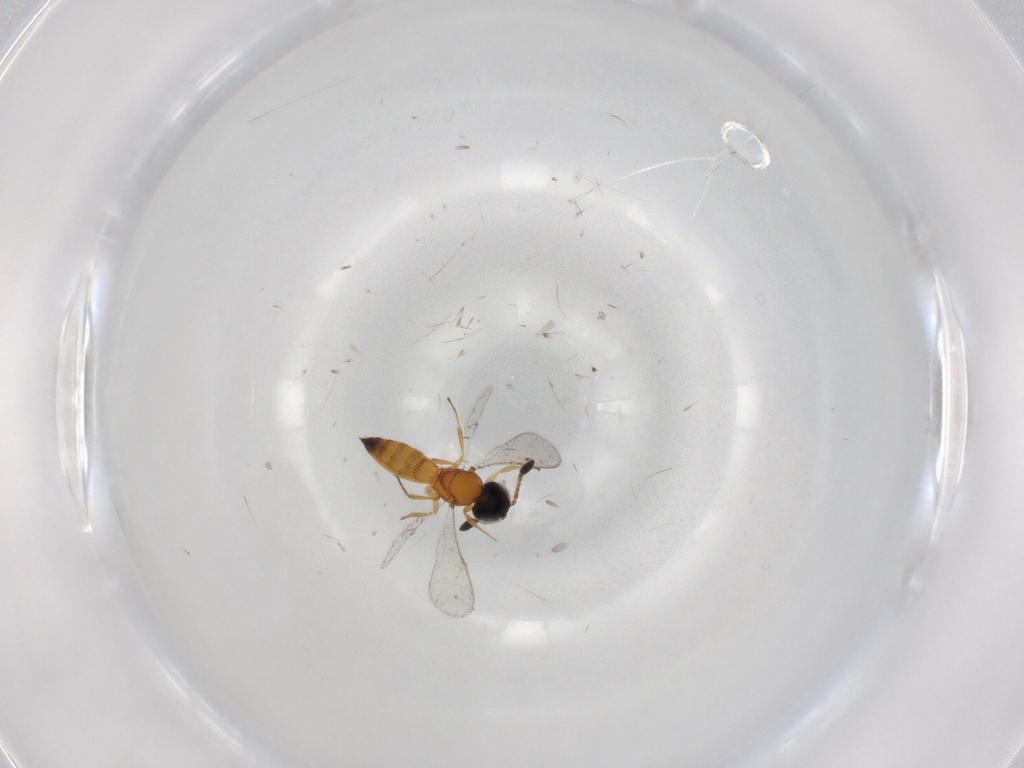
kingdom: Animalia
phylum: Arthropoda
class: Insecta
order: Hymenoptera
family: Scelionidae
